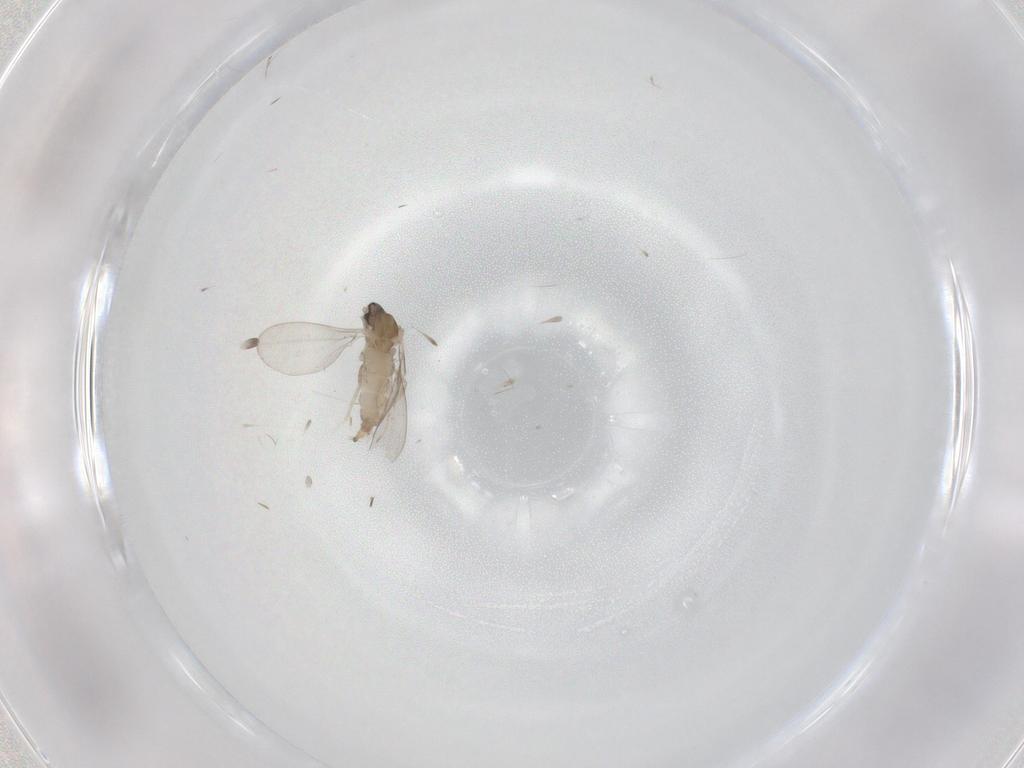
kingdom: Animalia
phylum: Arthropoda
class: Insecta
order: Diptera
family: Cecidomyiidae
